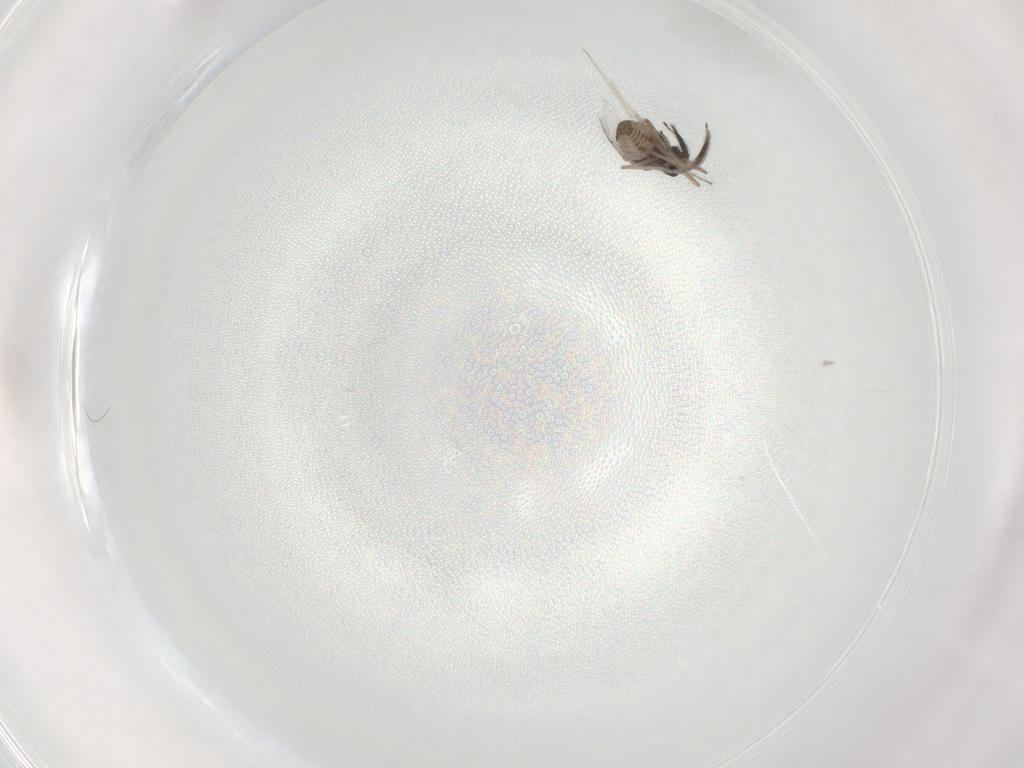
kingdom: Animalia
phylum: Arthropoda
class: Insecta
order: Diptera
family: Ceratopogonidae
